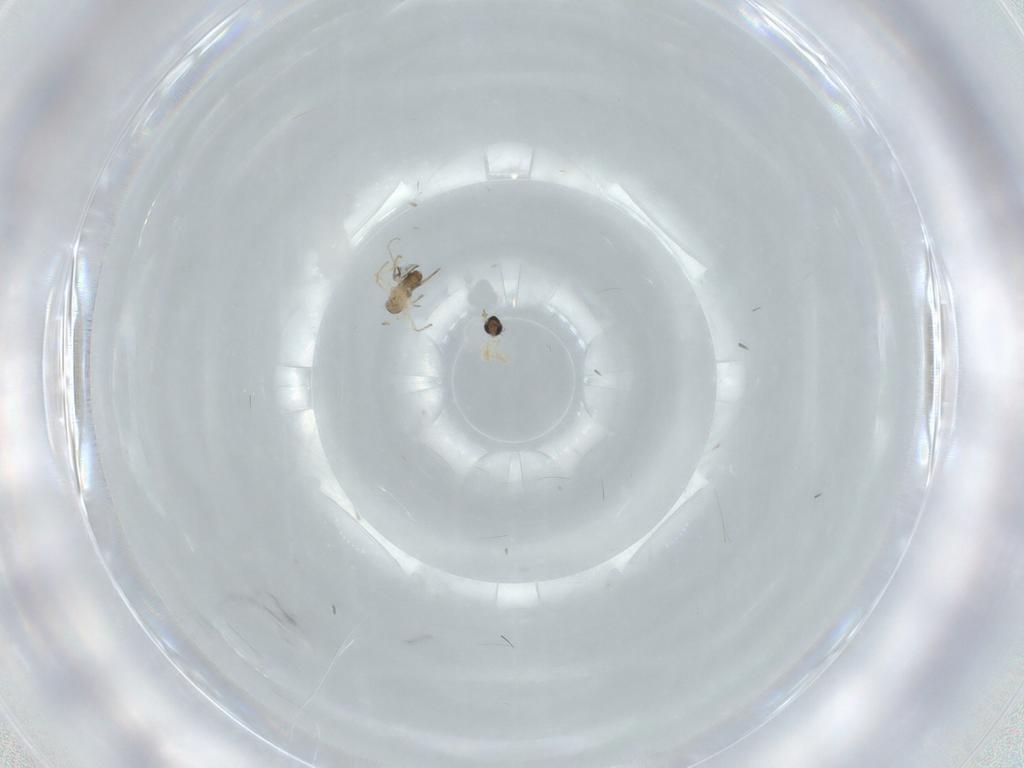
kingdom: Animalia
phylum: Arthropoda
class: Insecta
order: Diptera
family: Cecidomyiidae
